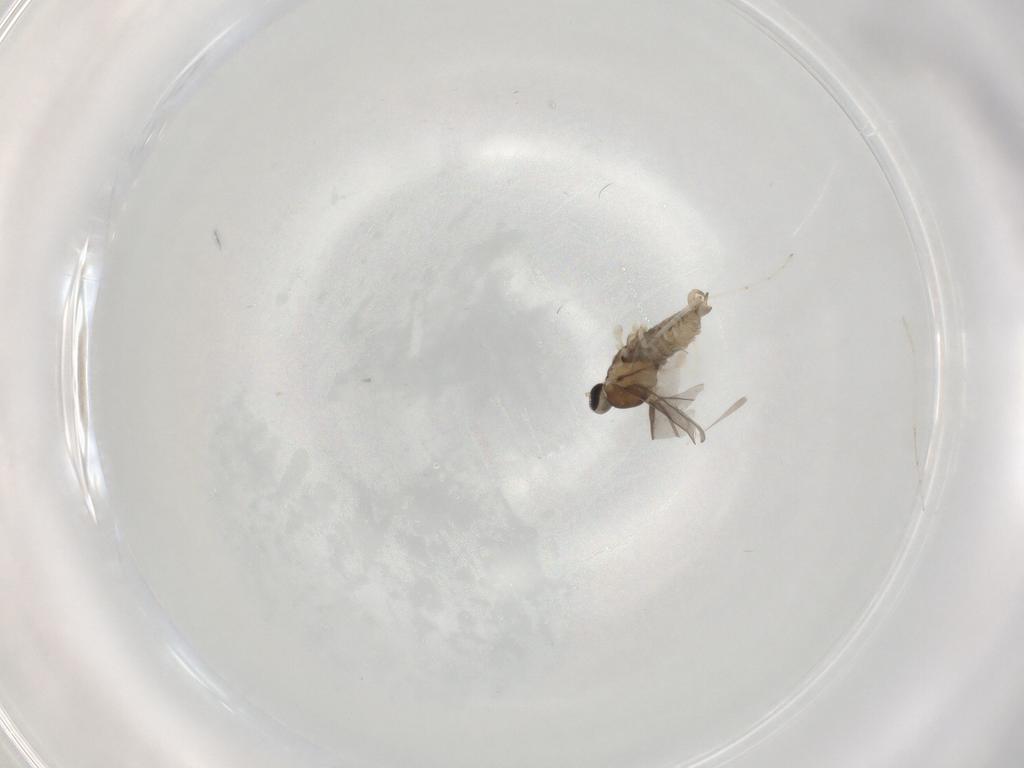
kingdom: Animalia
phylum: Arthropoda
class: Insecta
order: Diptera
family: Cecidomyiidae
